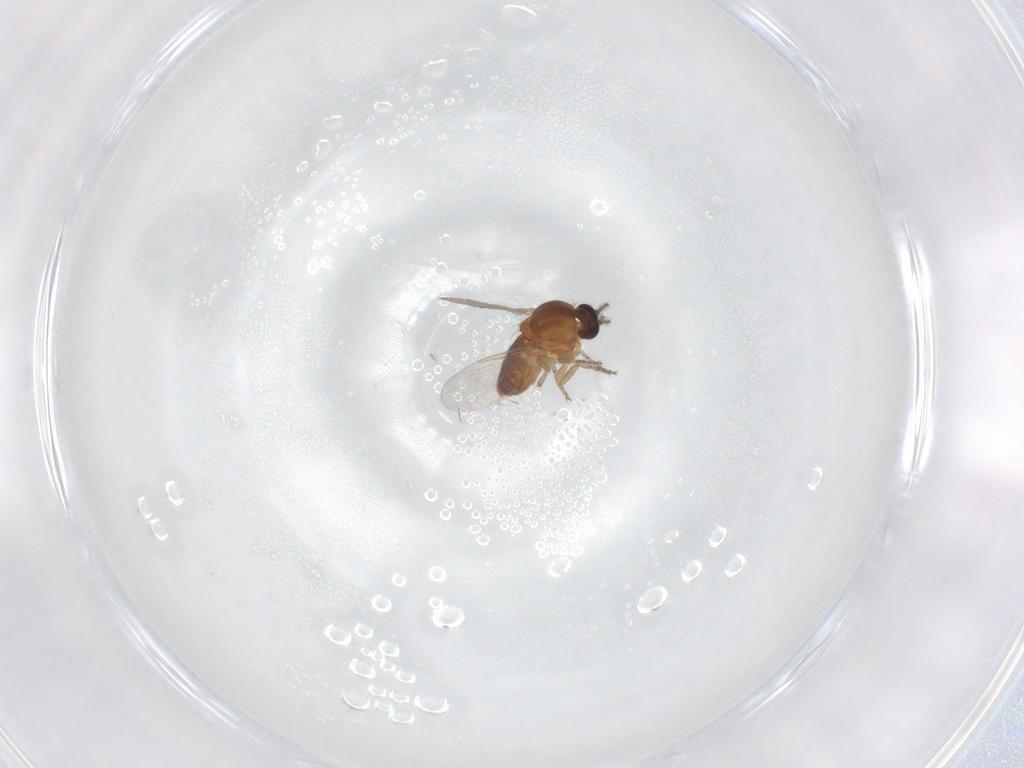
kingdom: Animalia
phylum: Arthropoda
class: Insecta
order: Diptera
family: Ceratopogonidae
